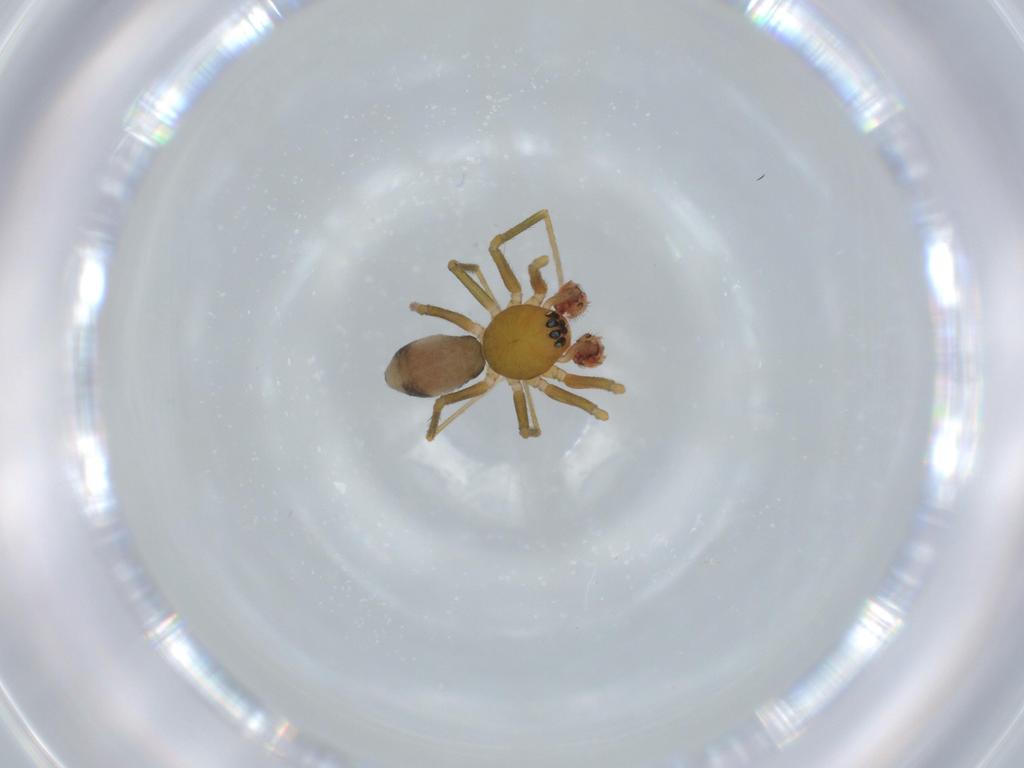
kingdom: Animalia
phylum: Arthropoda
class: Arachnida
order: Araneae
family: Linyphiidae
